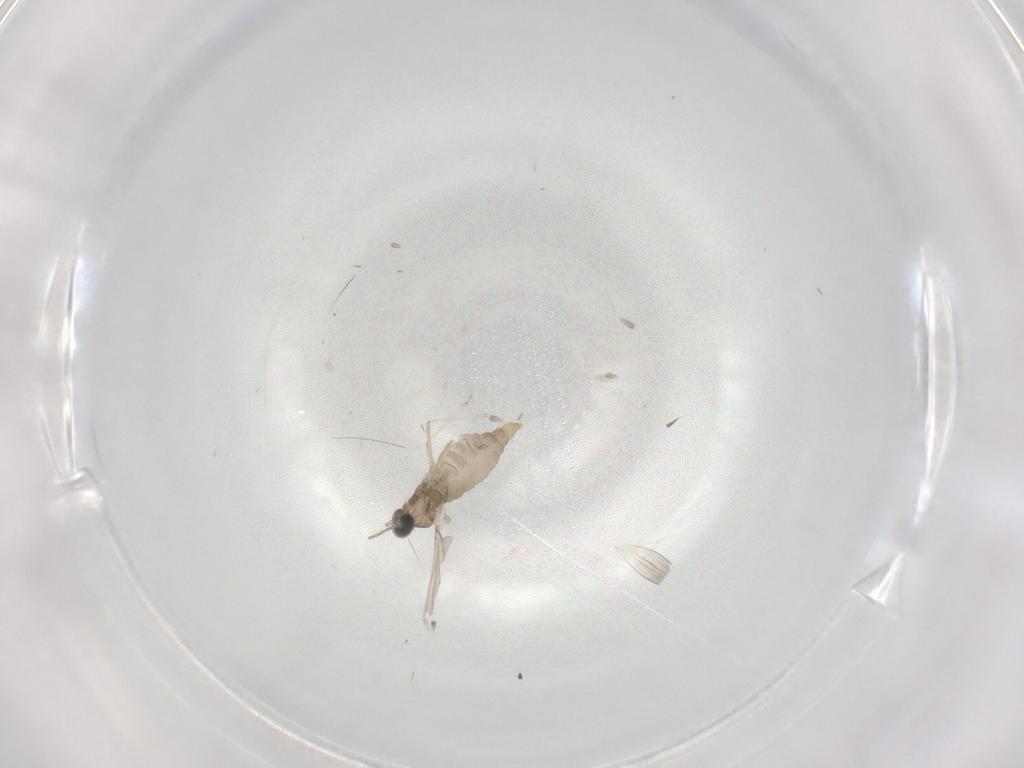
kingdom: Animalia
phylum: Arthropoda
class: Insecta
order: Diptera
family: Cecidomyiidae
